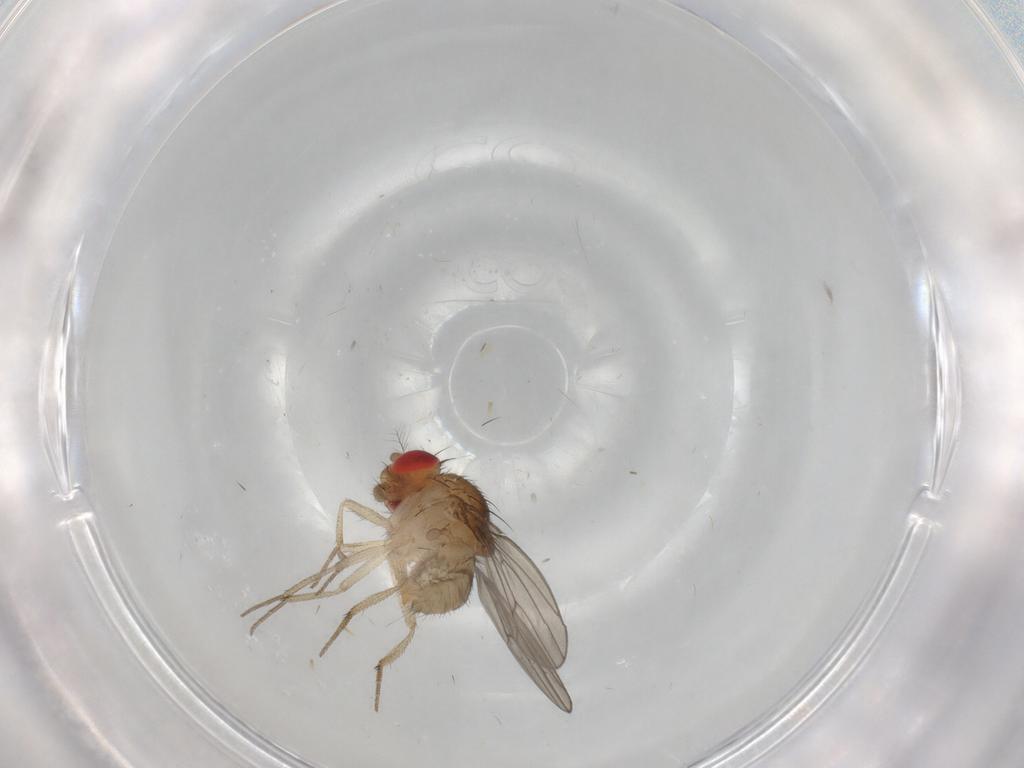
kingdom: Animalia
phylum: Arthropoda
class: Insecta
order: Diptera
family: Drosophilidae
